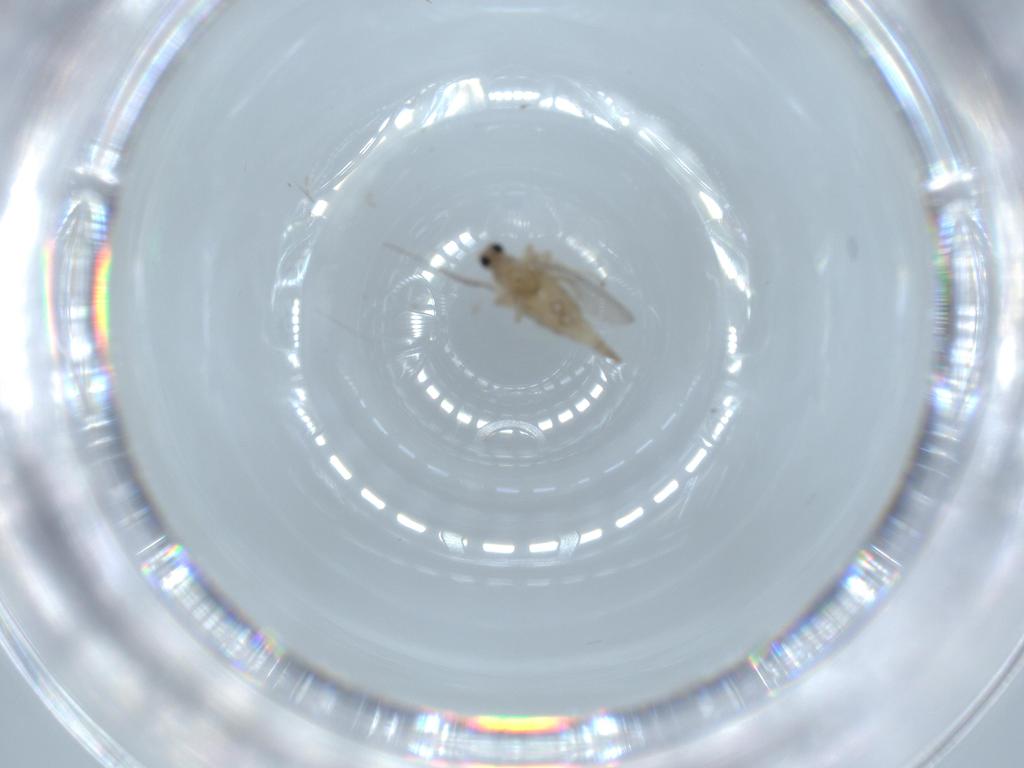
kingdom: Animalia
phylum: Arthropoda
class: Insecta
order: Diptera
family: Cecidomyiidae
